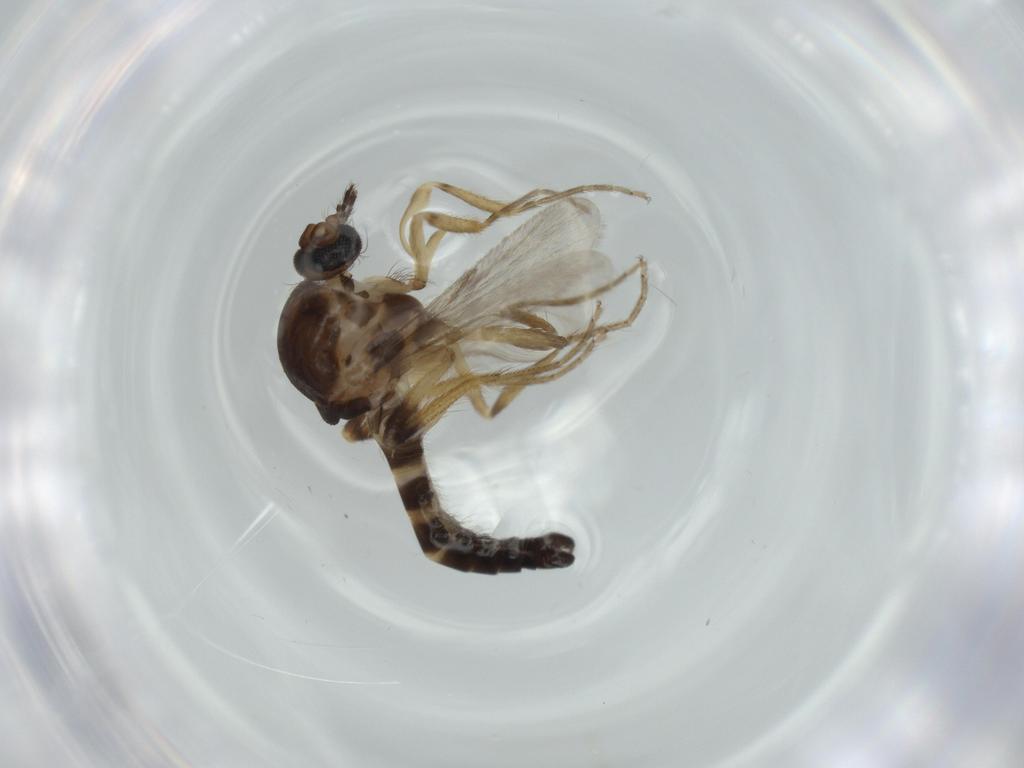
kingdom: Animalia
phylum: Arthropoda
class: Insecta
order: Diptera
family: Ceratopogonidae
